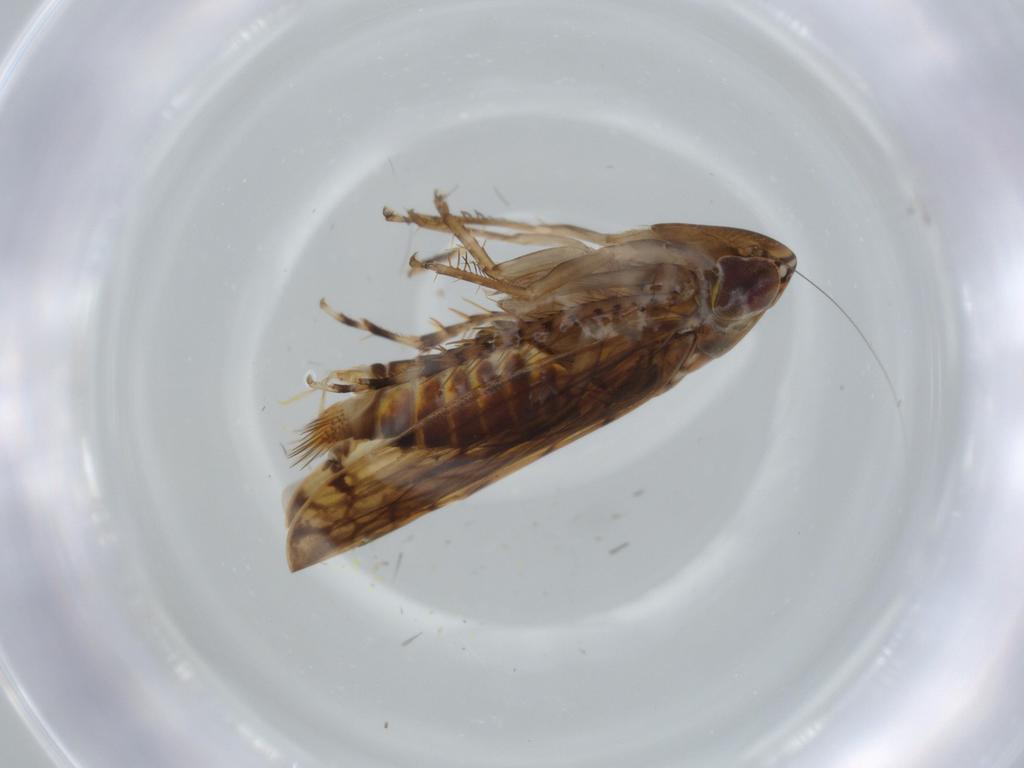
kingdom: Animalia
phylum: Arthropoda
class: Insecta
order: Hemiptera
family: Cicadellidae
